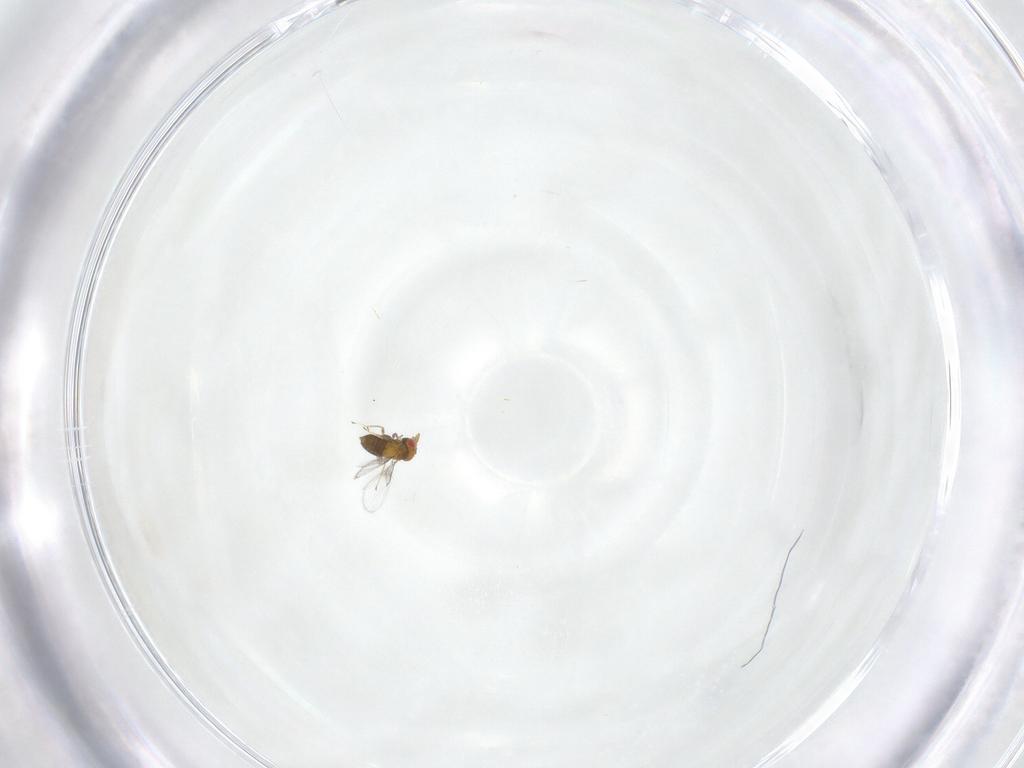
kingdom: Animalia
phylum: Arthropoda
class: Insecta
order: Hymenoptera
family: Trichogrammatidae
